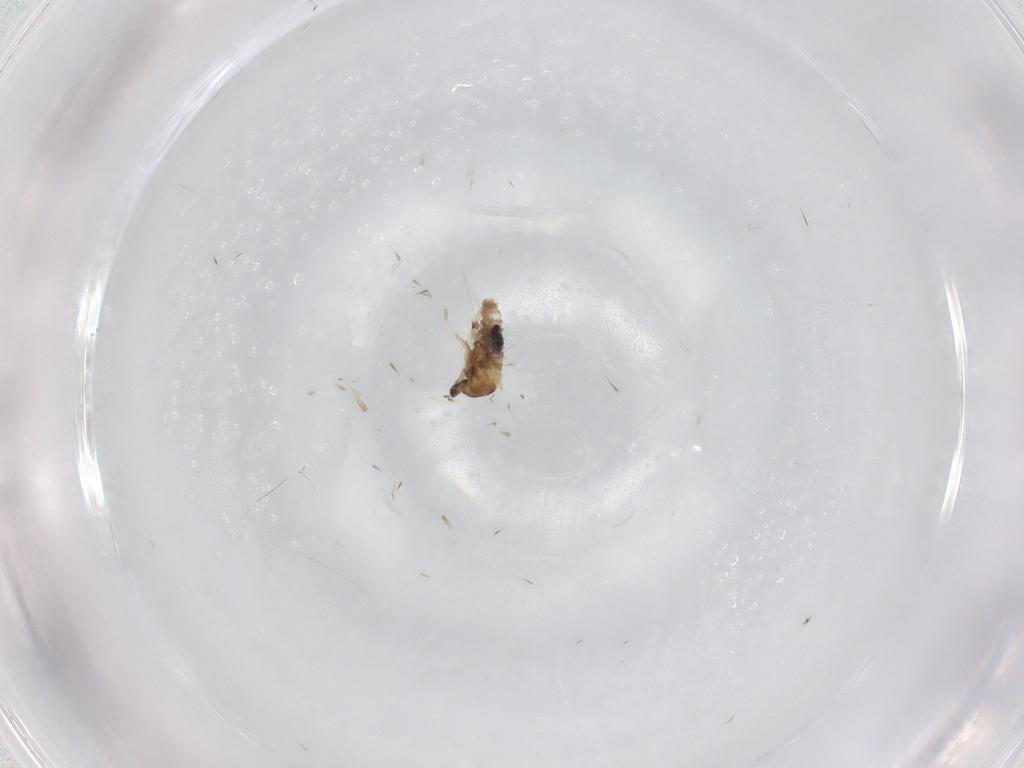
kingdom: Animalia
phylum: Arthropoda
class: Insecta
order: Diptera
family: Cecidomyiidae
